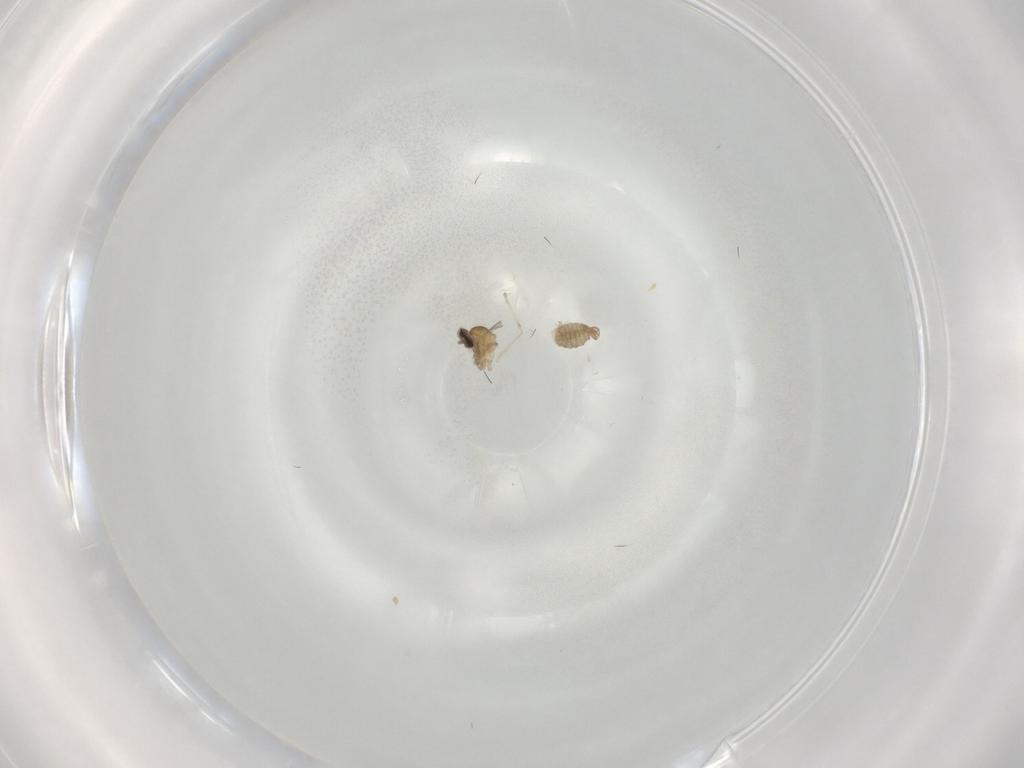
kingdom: Animalia
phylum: Arthropoda
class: Insecta
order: Diptera
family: Cecidomyiidae
